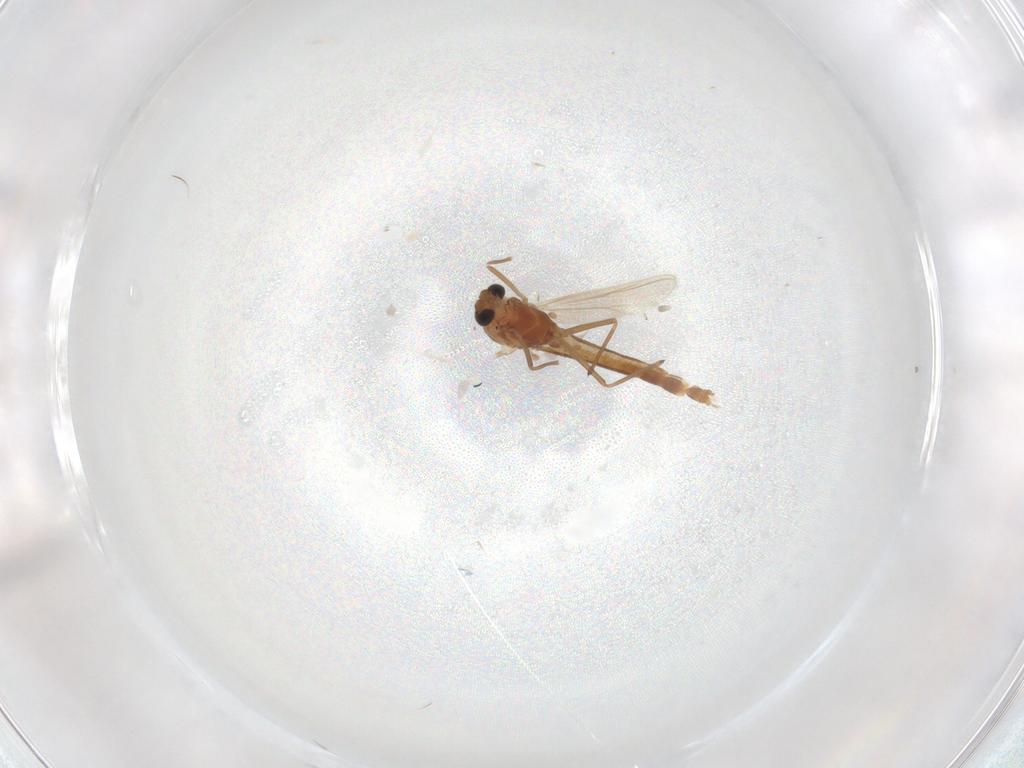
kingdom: Animalia
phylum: Arthropoda
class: Insecta
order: Diptera
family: Chironomidae
